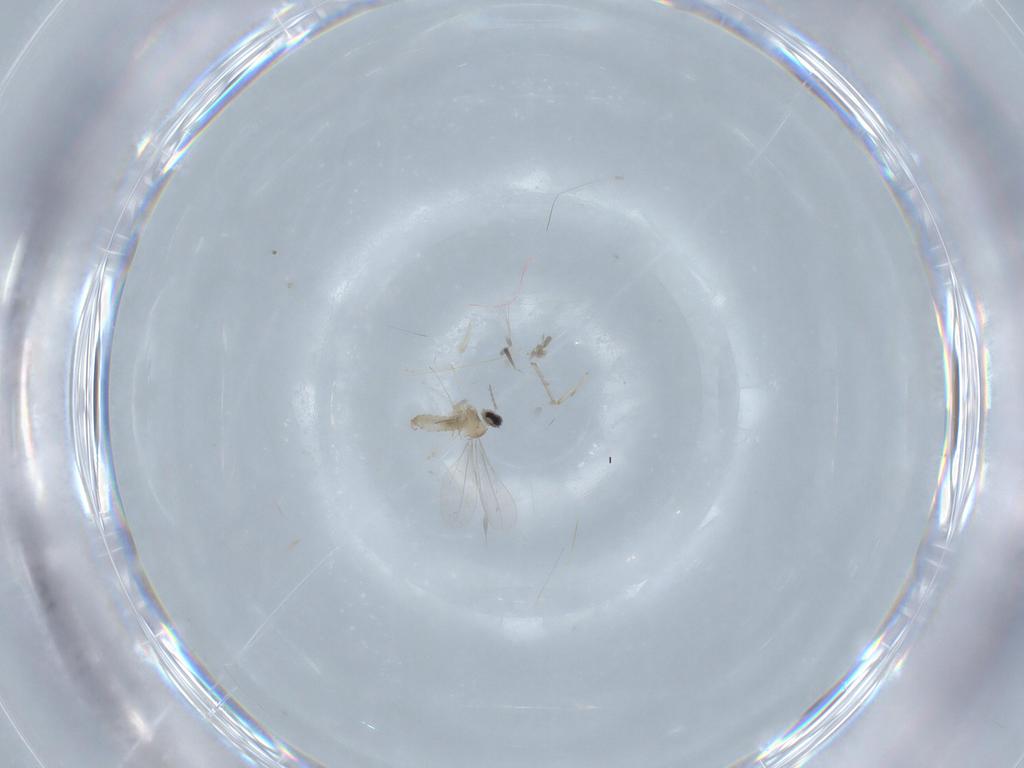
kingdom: Animalia
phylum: Arthropoda
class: Insecta
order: Diptera
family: Cecidomyiidae
